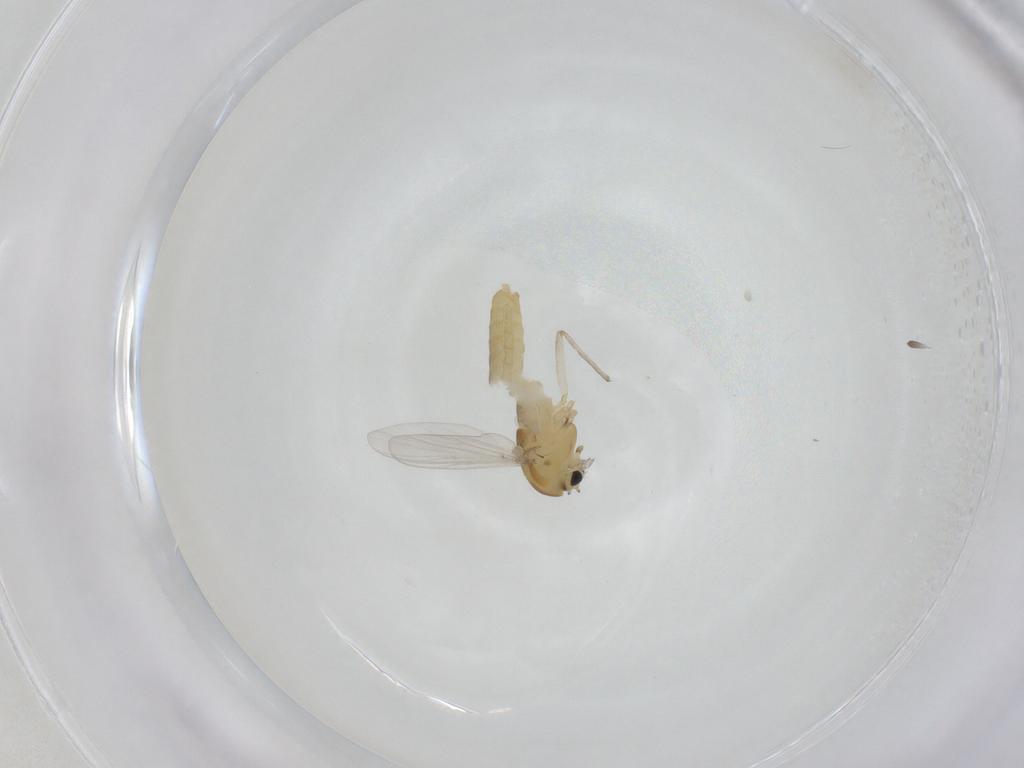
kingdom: Animalia
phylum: Arthropoda
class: Insecta
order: Diptera
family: Chironomidae
